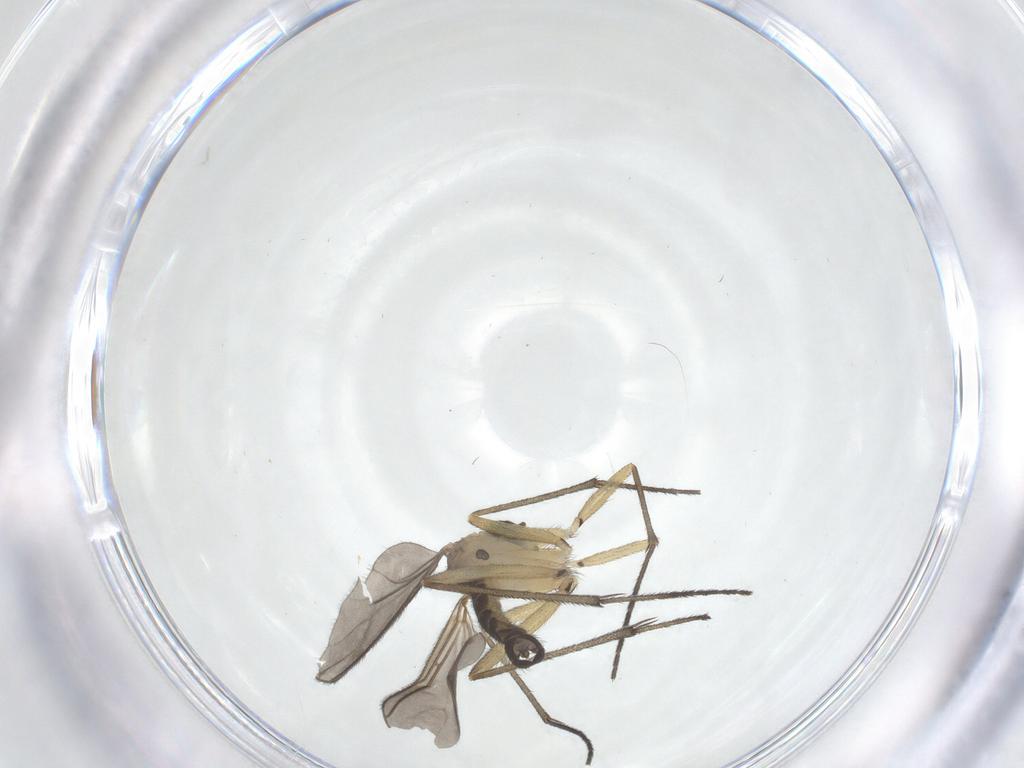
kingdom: Animalia
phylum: Arthropoda
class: Insecta
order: Diptera
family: Sciaridae
